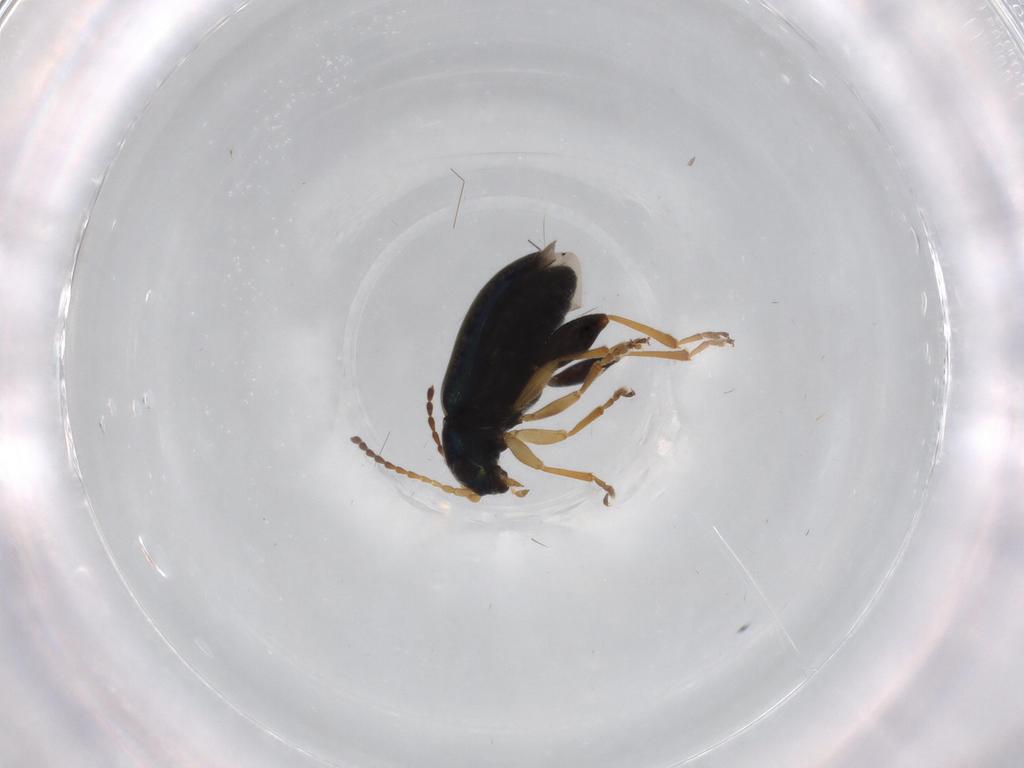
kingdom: Animalia
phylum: Arthropoda
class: Insecta
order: Coleoptera
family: Chrysomelidae
